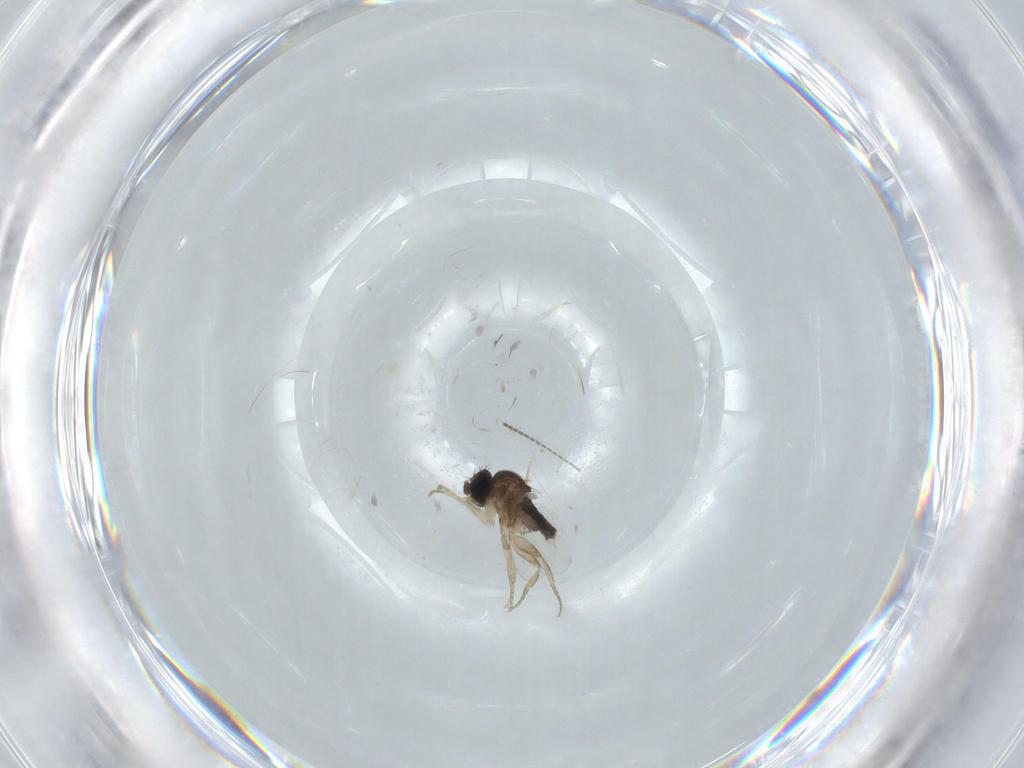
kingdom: Animalia
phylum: Arthropoda
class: Insecta
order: Diptera
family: Phoridae
